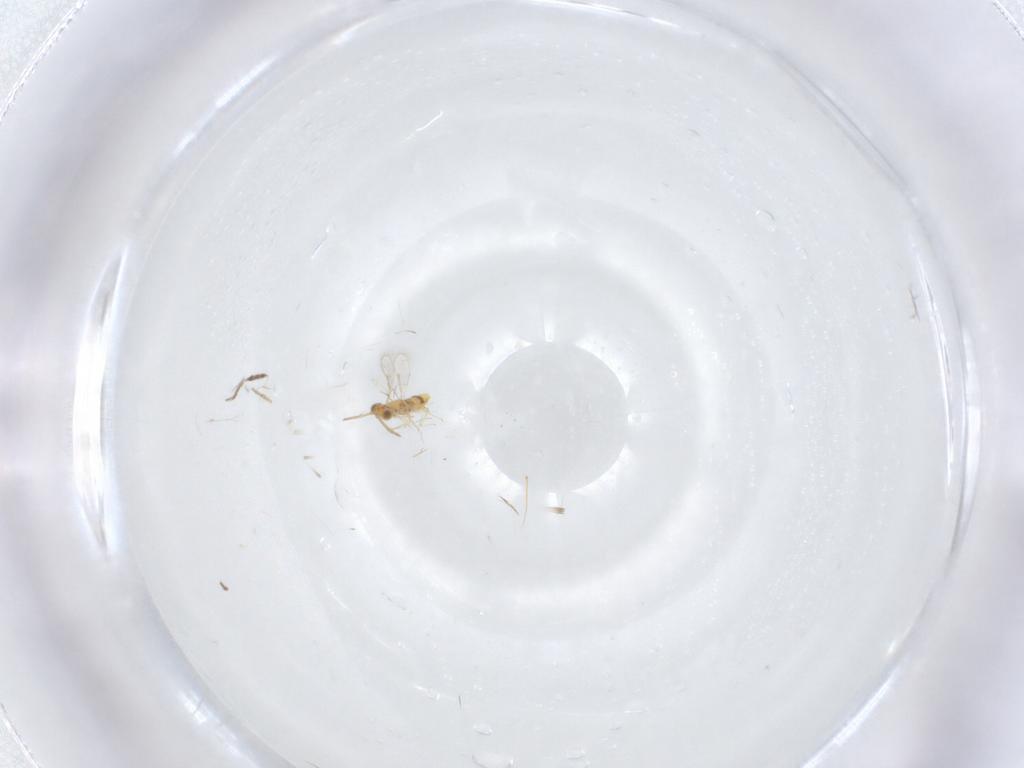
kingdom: Animalia
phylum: Arthropoda
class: Insecta
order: Hymenoptera
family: Aphelinidae
